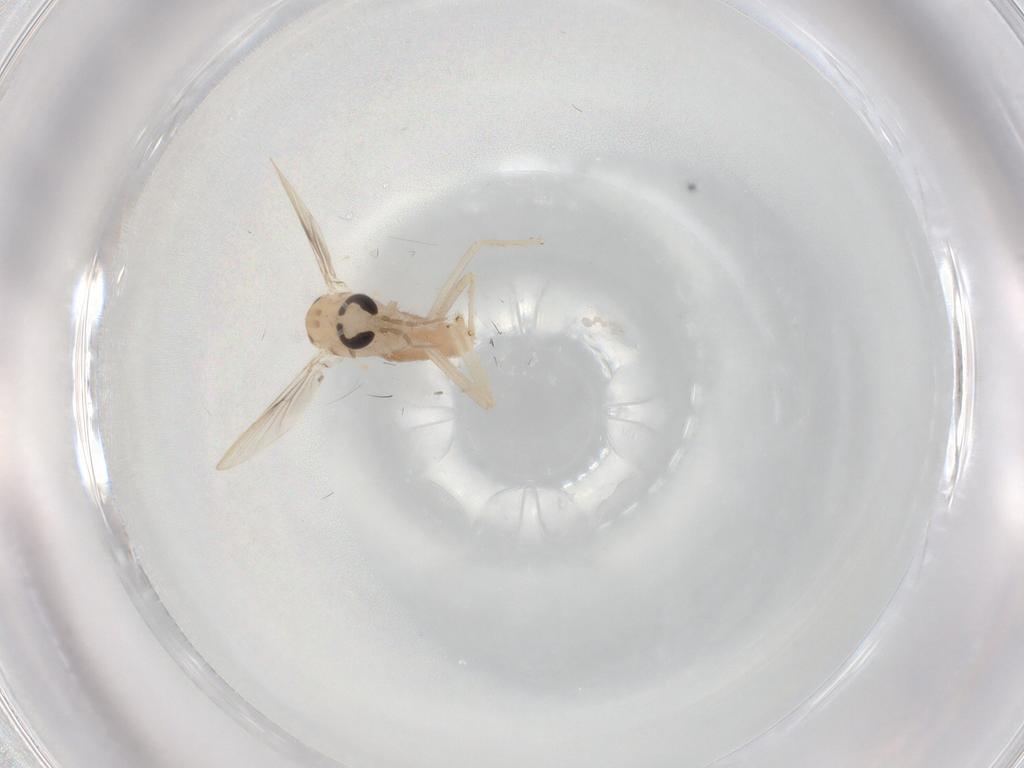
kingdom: Animalia
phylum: Arthropoda
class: Insecta
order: Diptera
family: Chironomidae
